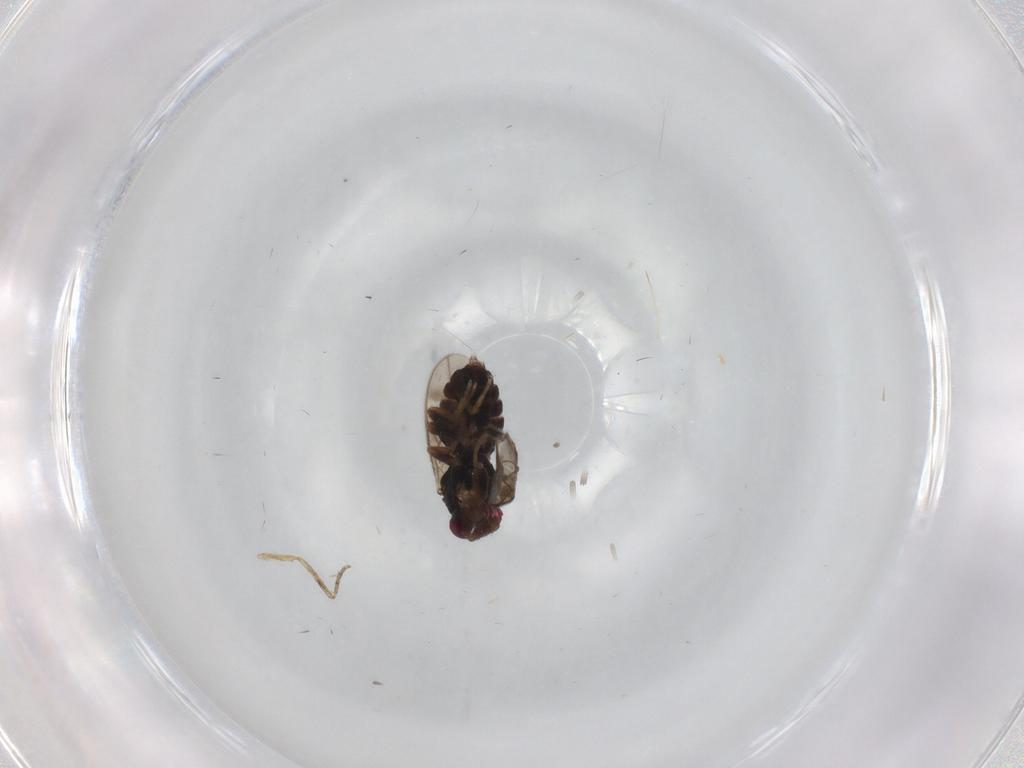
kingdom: Animalia
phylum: Arthropoda
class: Insecta
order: Diptera
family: Sphaeroceridae
